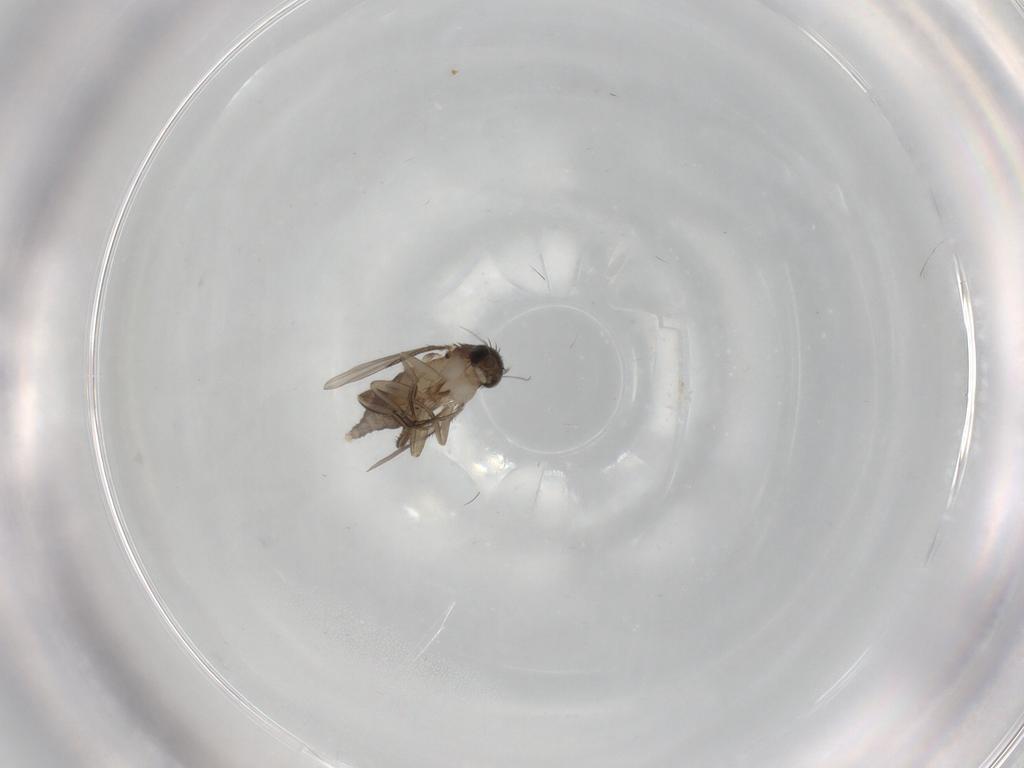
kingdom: Animalia
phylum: Arthropoda
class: Insecta
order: Diptera
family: Phoridae
